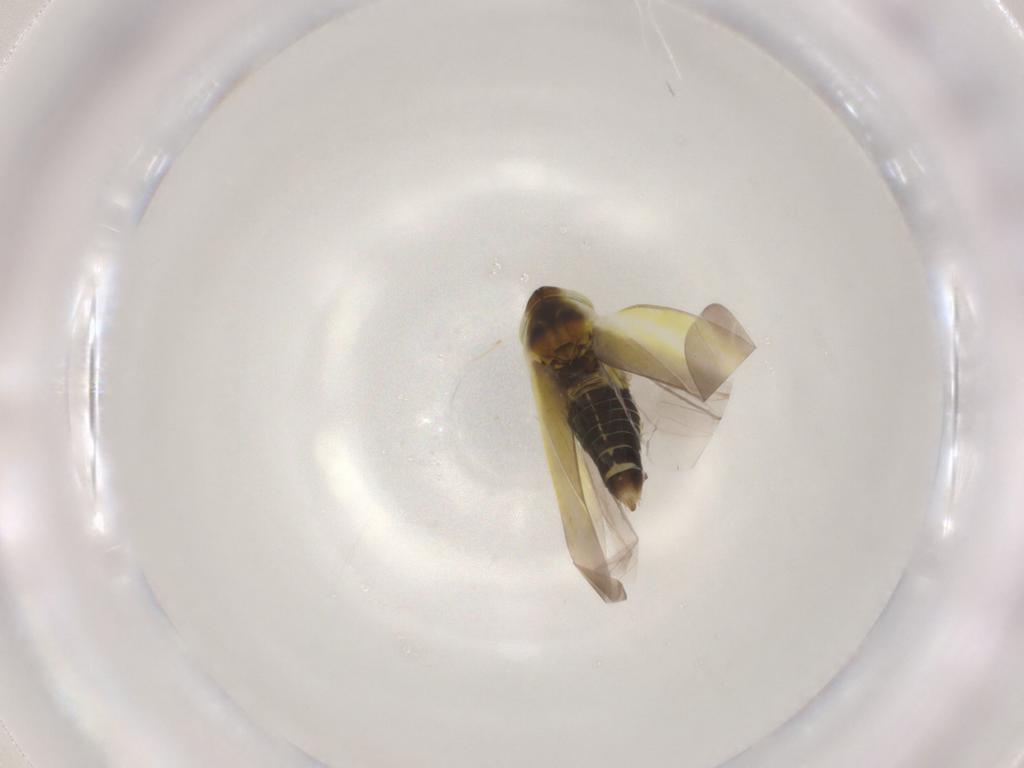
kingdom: Animalia
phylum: Arthropoda
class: Insecta
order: Hemiptera
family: Cicadellidae
